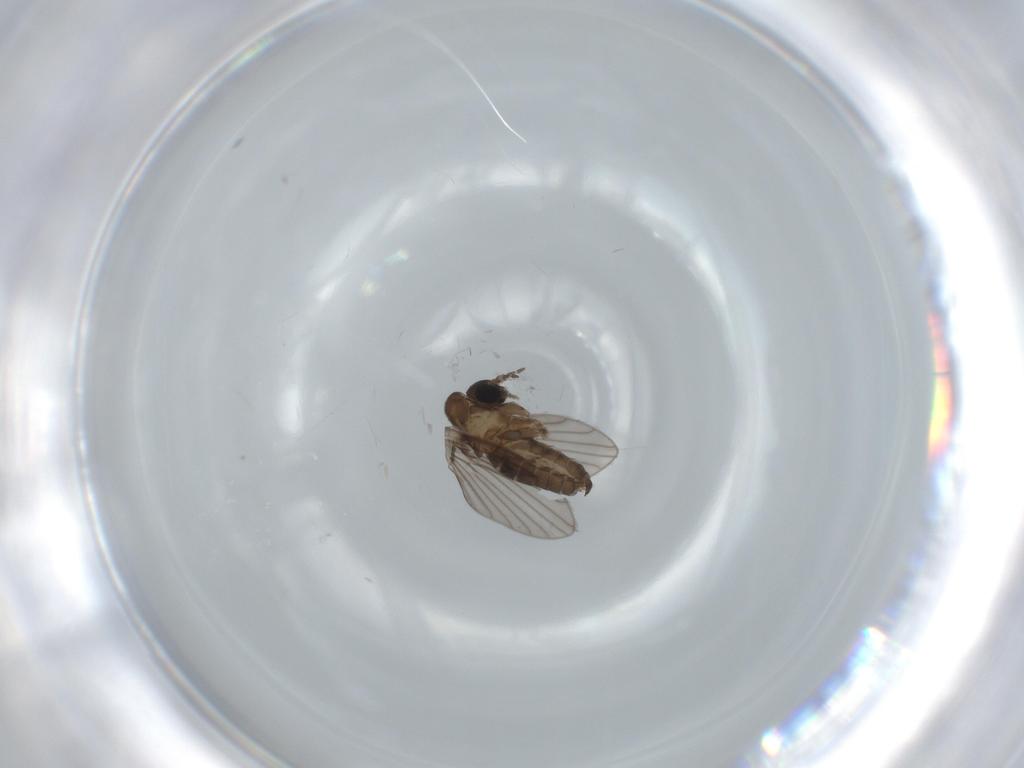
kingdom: Animalia
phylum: Arthropoda
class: Insecta
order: Diptera
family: Psychodidae
